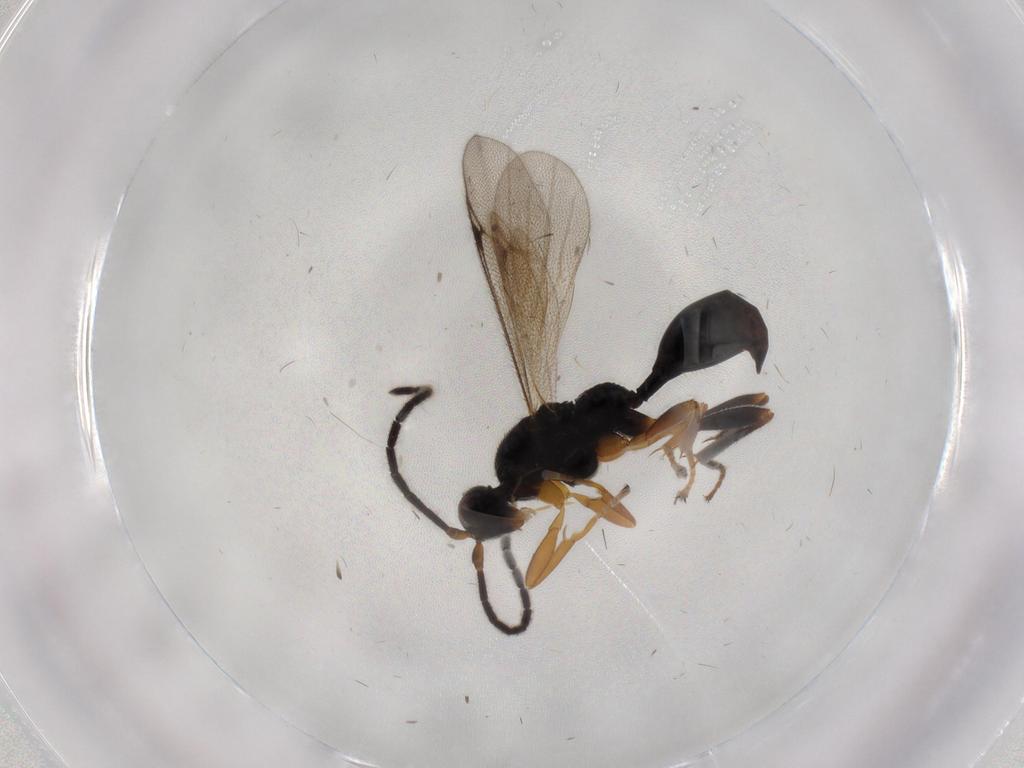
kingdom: Animalia
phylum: Arthropoda
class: Insecta
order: Hymenoptera
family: Proctotrupidae
